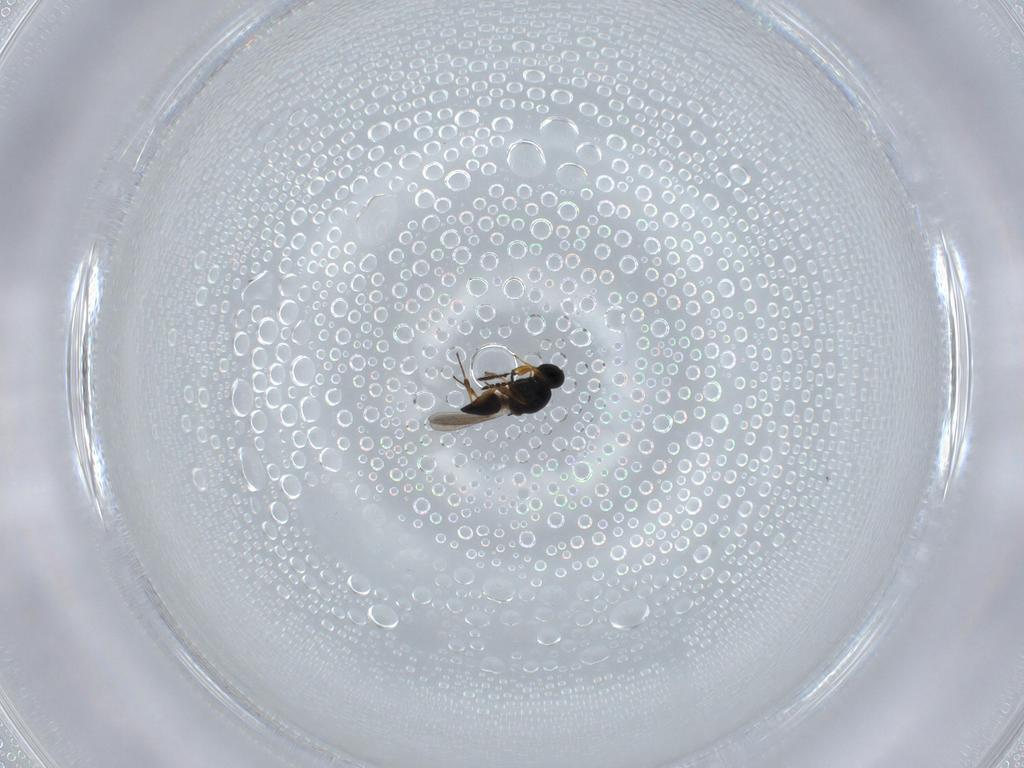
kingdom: Animalia
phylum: Arthropoda
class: Insecta
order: Hymenoptera
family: Platygastridae
